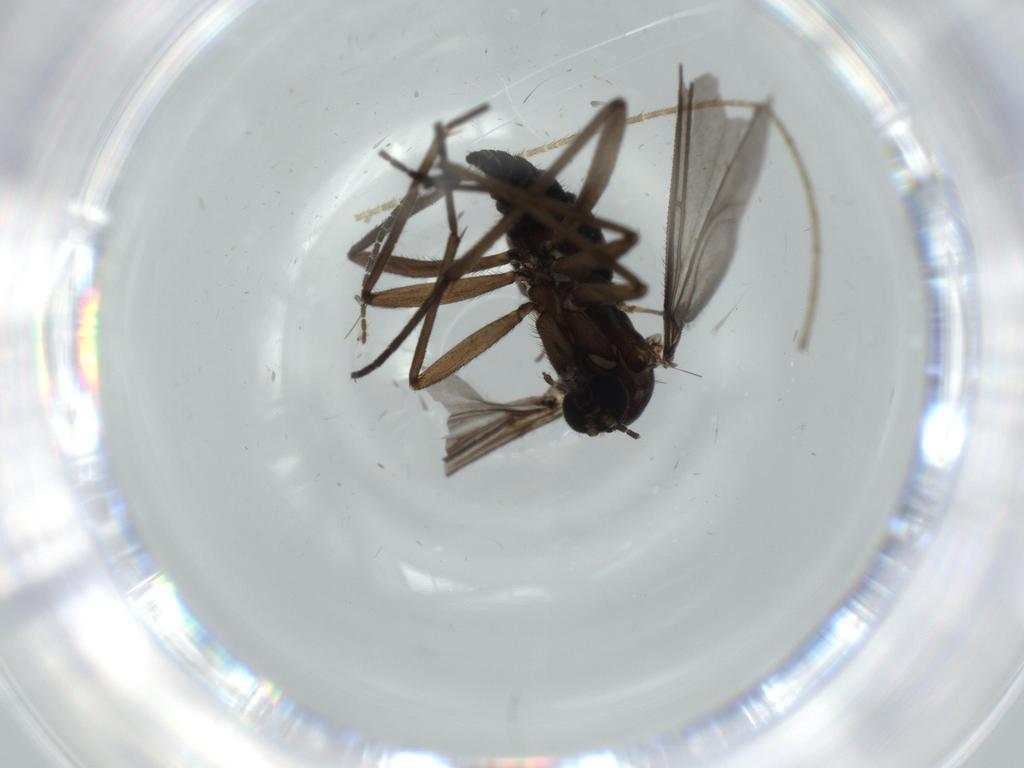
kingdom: Animalia
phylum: Arthropoda
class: Insecta
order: Diptera
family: Sciaridae
